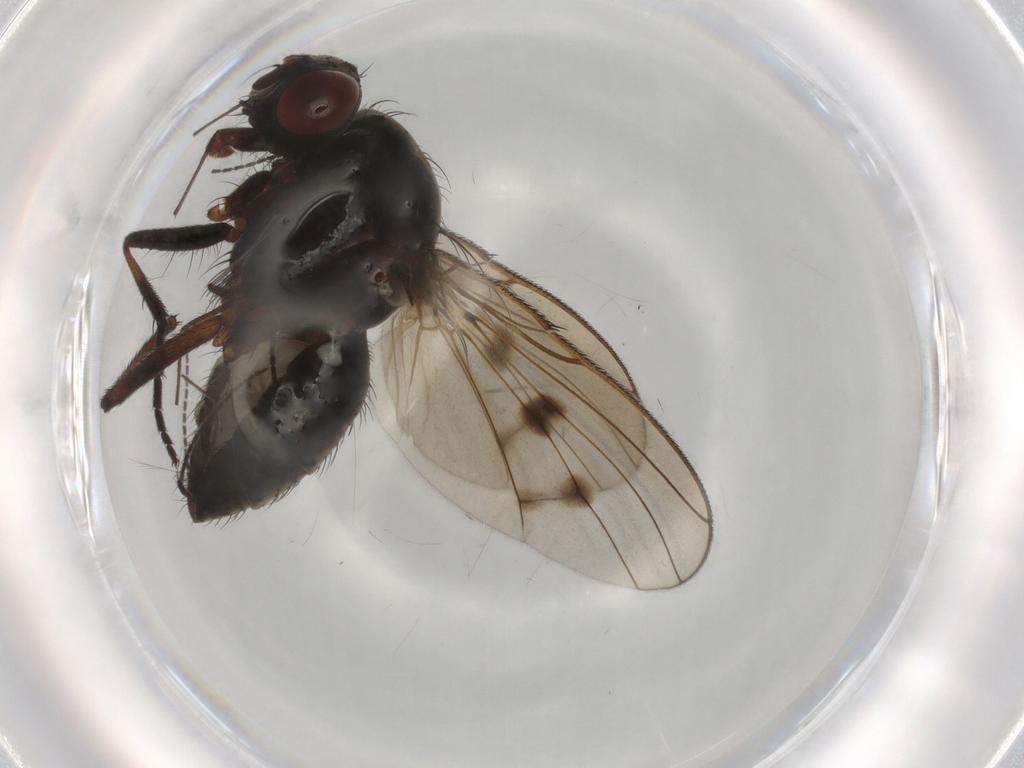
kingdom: Animalia
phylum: Arthropoda
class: Insecta
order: Diptera
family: Anthomyiidae
